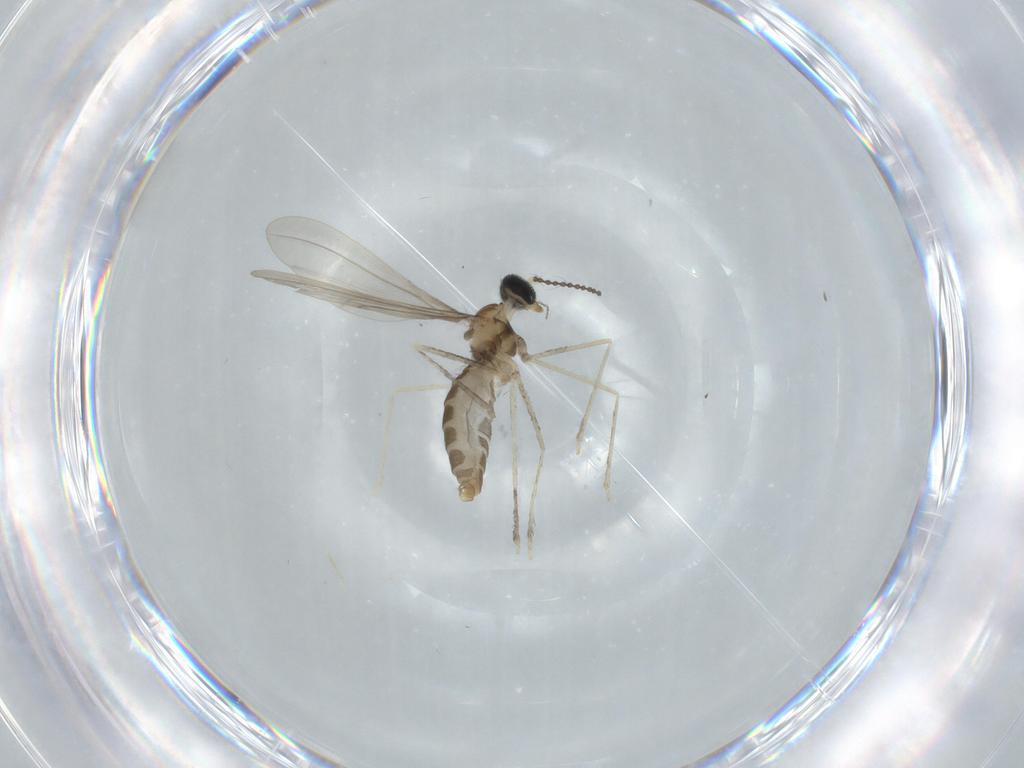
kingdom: Animalia
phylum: Arthropoda
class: Insecta
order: Diptera
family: Cecidomyiidae
